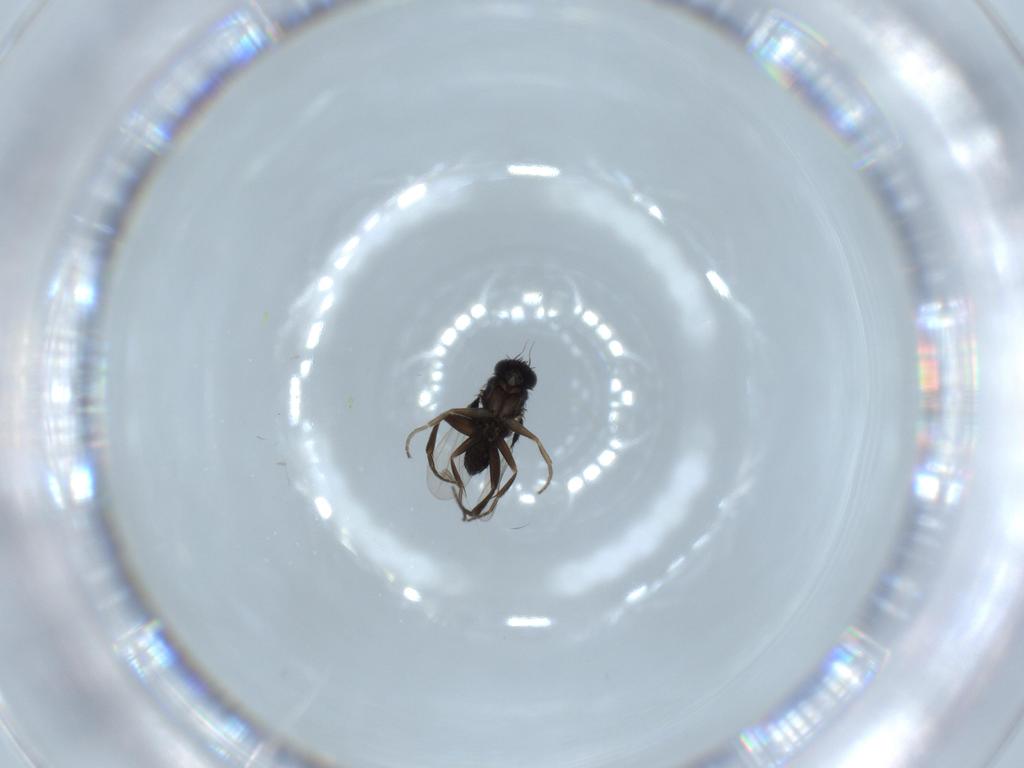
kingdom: Animalia
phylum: Arthropoda
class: Insecta
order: Diptera
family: Phoridae
